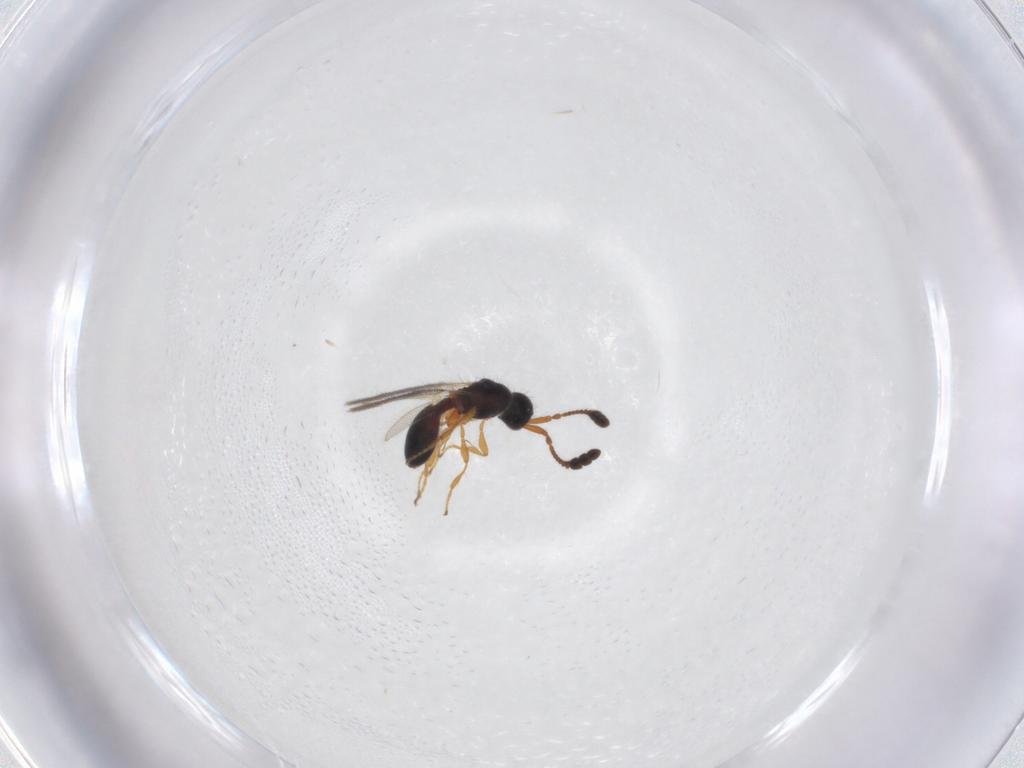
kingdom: Animalia
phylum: Arthropoda
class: Insecta
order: Hymenoptera
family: Diapriidae
